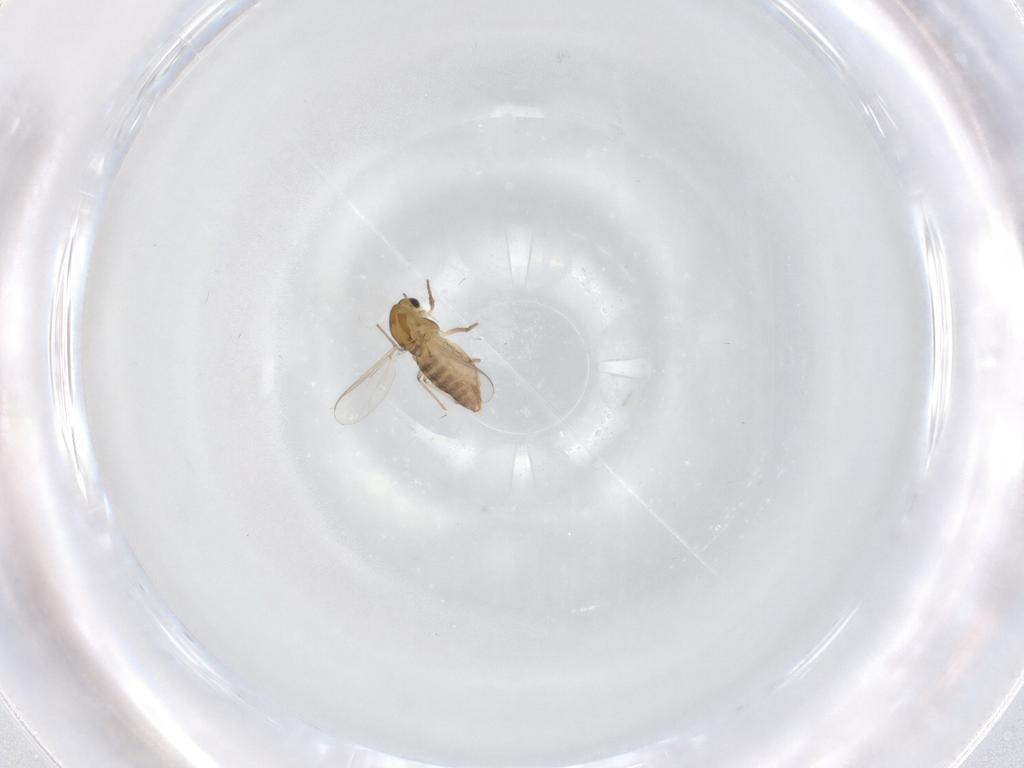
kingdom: Animalia
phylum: Arthropoda
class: Insecta
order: Diptera
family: Chironomidae
